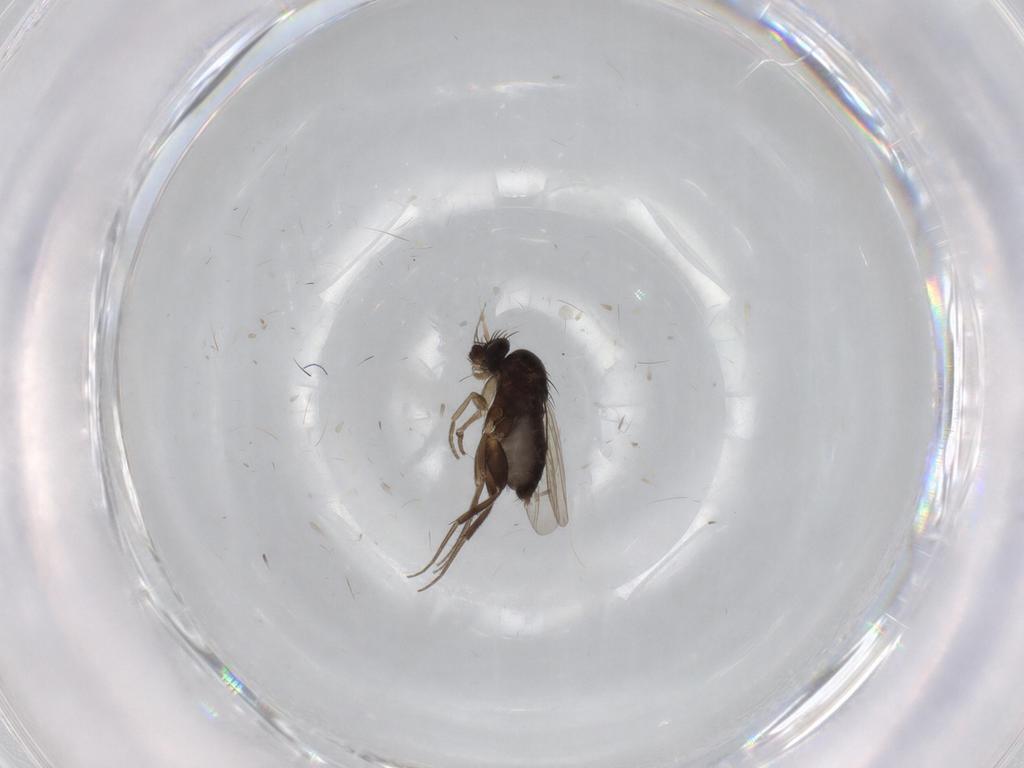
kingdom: Animalia
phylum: Arthropoda
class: Insecta
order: Diptera
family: Phoridae
